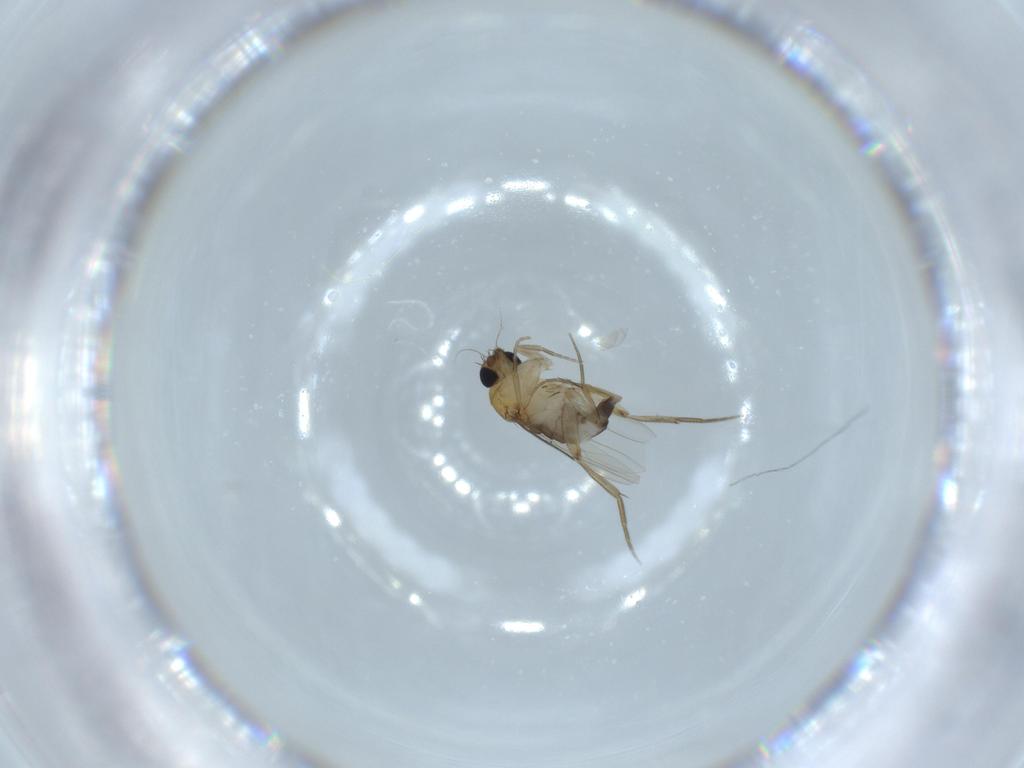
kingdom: Animalia
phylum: Arthropoda
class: Insecta
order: Diptera
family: Phoridae
